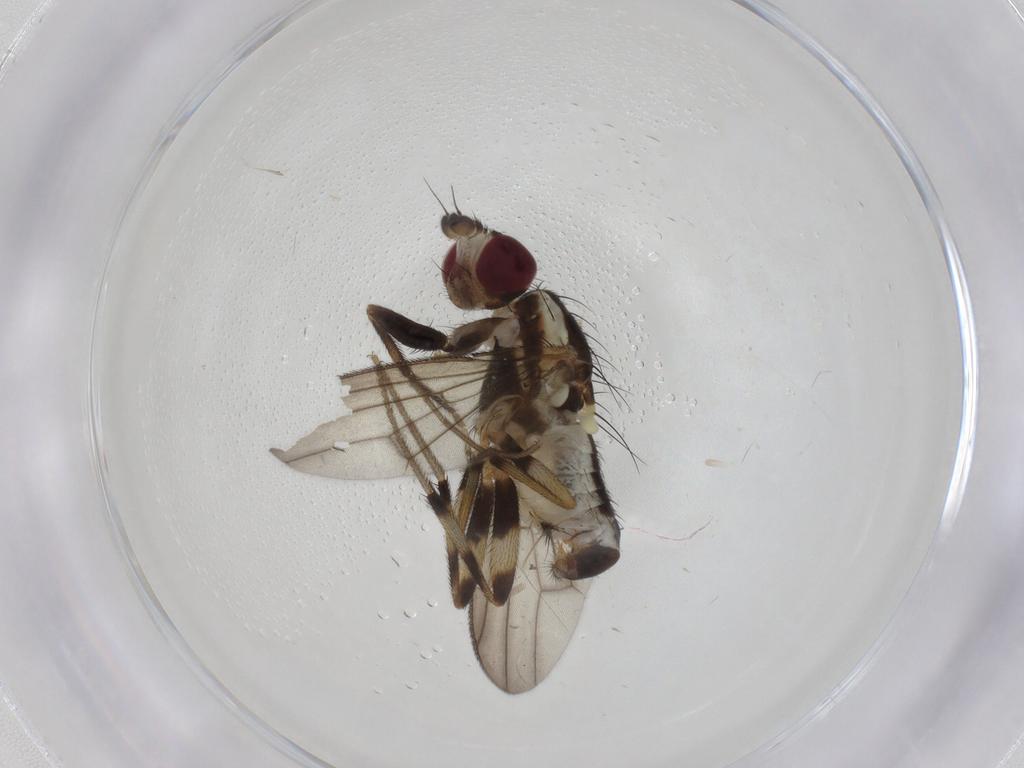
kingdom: Animalia
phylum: Arthropoda
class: Insecta
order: Diptera
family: Pseudopomyzidae
